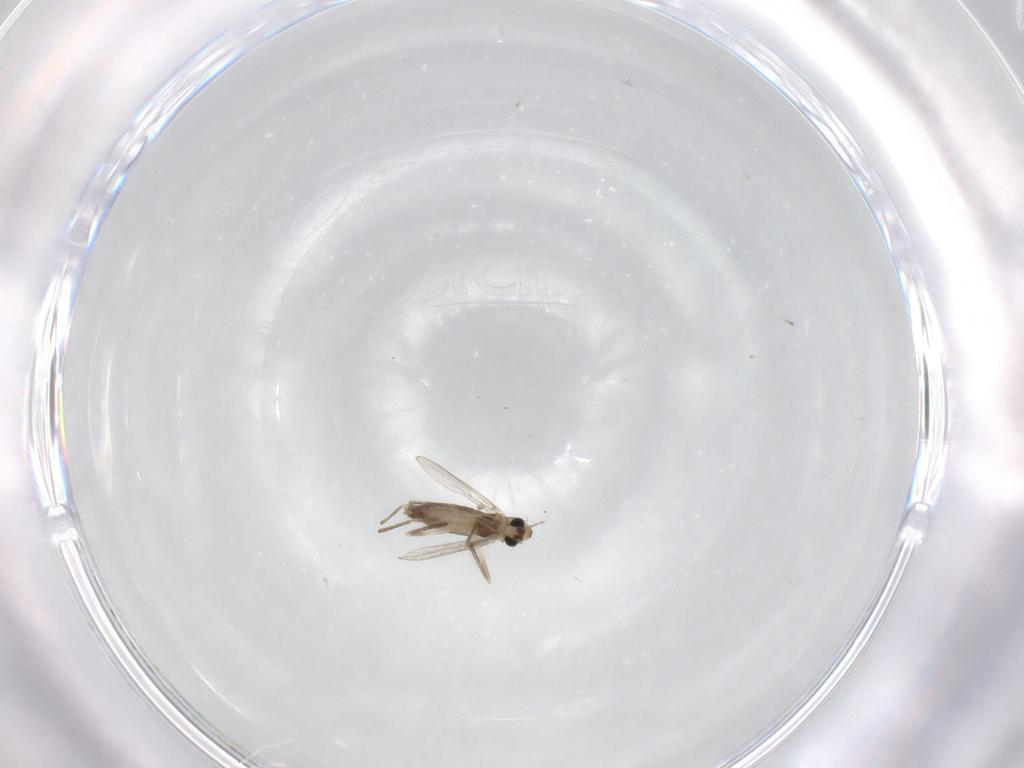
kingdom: Animalia
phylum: Arthropoda
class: Insecta
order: Diptera
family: Chironomidae
